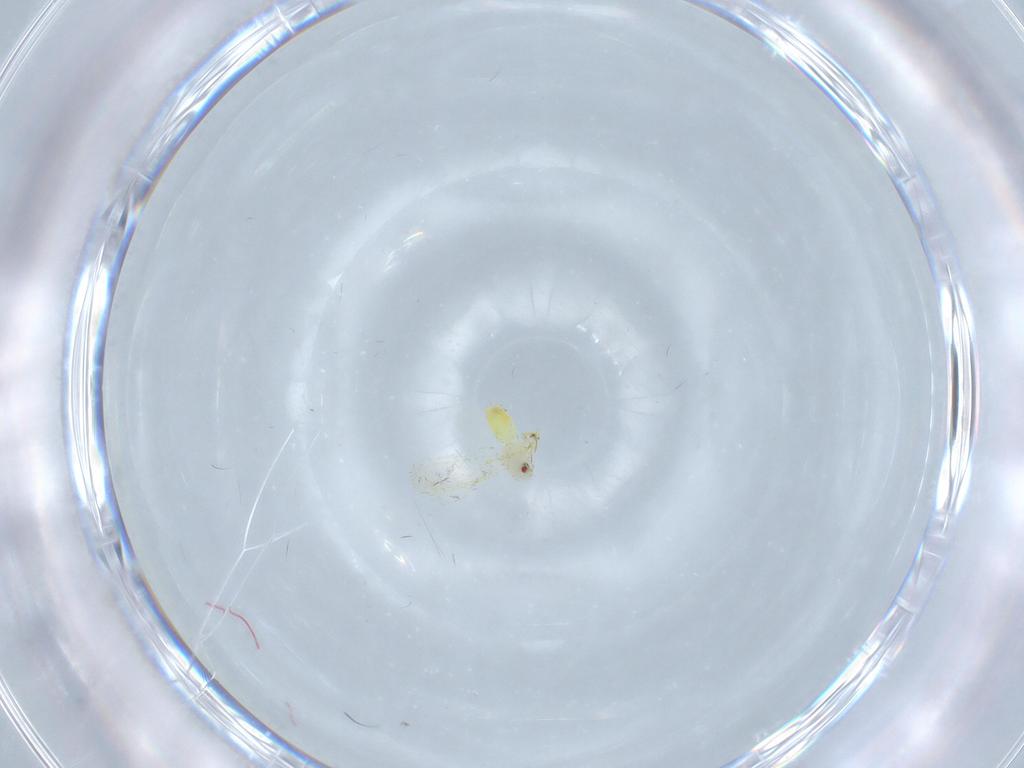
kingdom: Animalia
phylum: Arthropoda
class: Insecta
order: Hemiptera
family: Aleyrodidae
